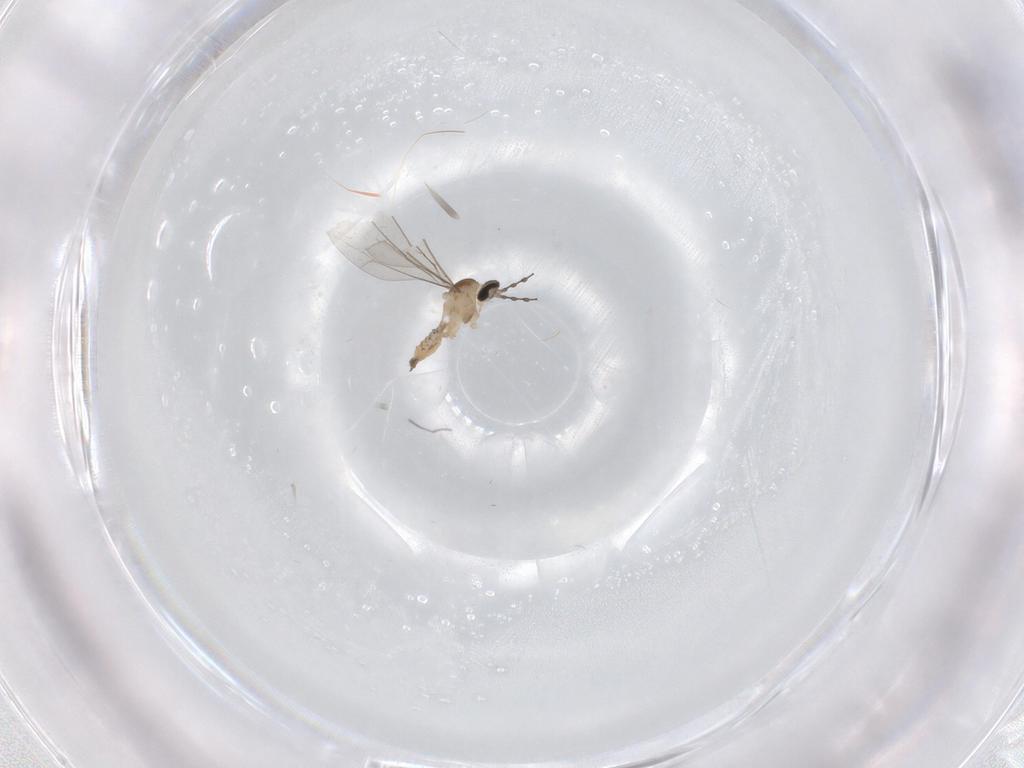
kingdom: Animalia
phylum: Arthropoda
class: Insecta
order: Diptera
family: Cecidomyiidae
